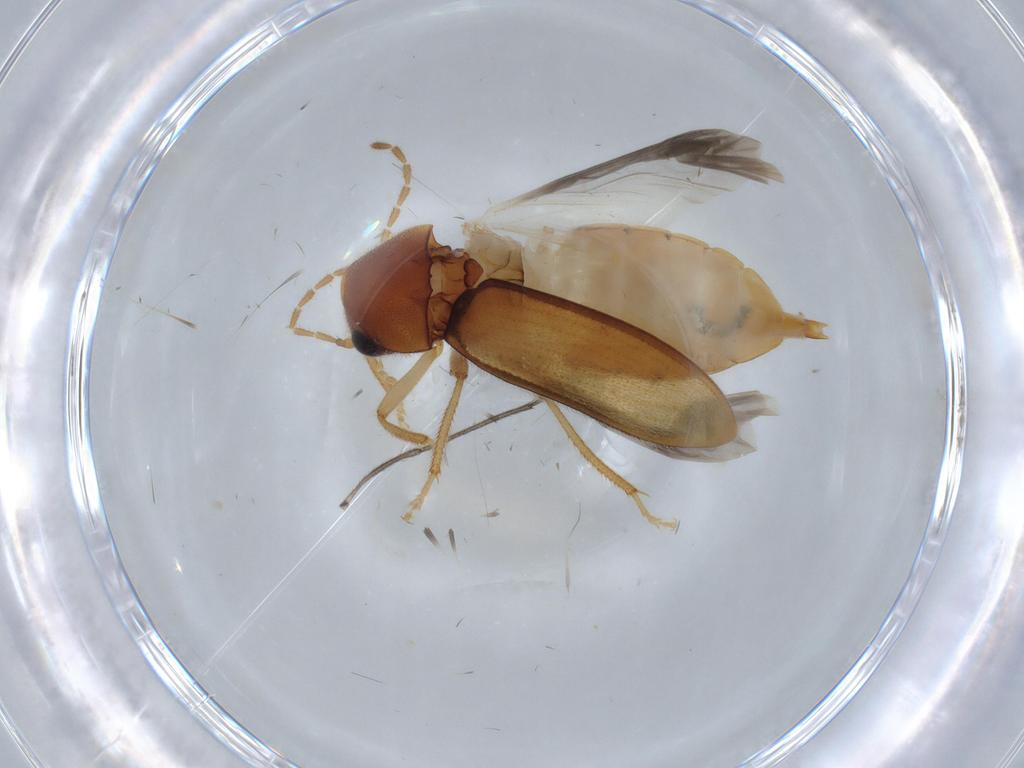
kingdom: Animalia
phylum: Arthropoda
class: Insecta
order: Coleoptera
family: Ptilodactylidae
